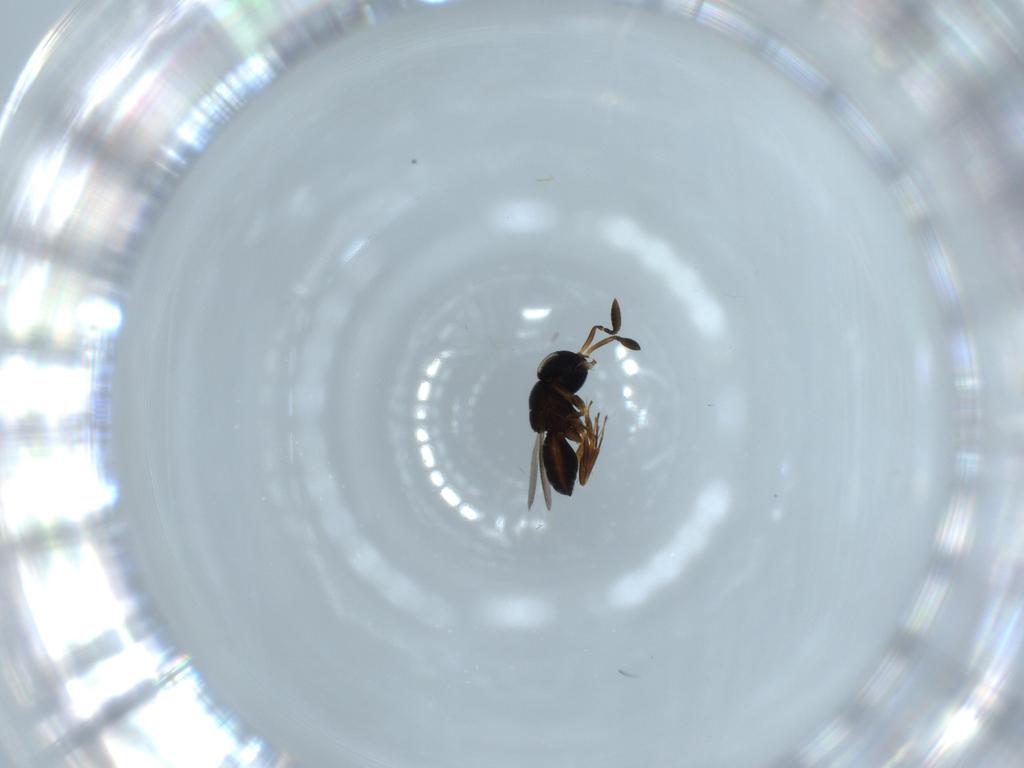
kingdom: Animalia
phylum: Arthropoda
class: Insecta
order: Coleoptera
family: Curculionidae
